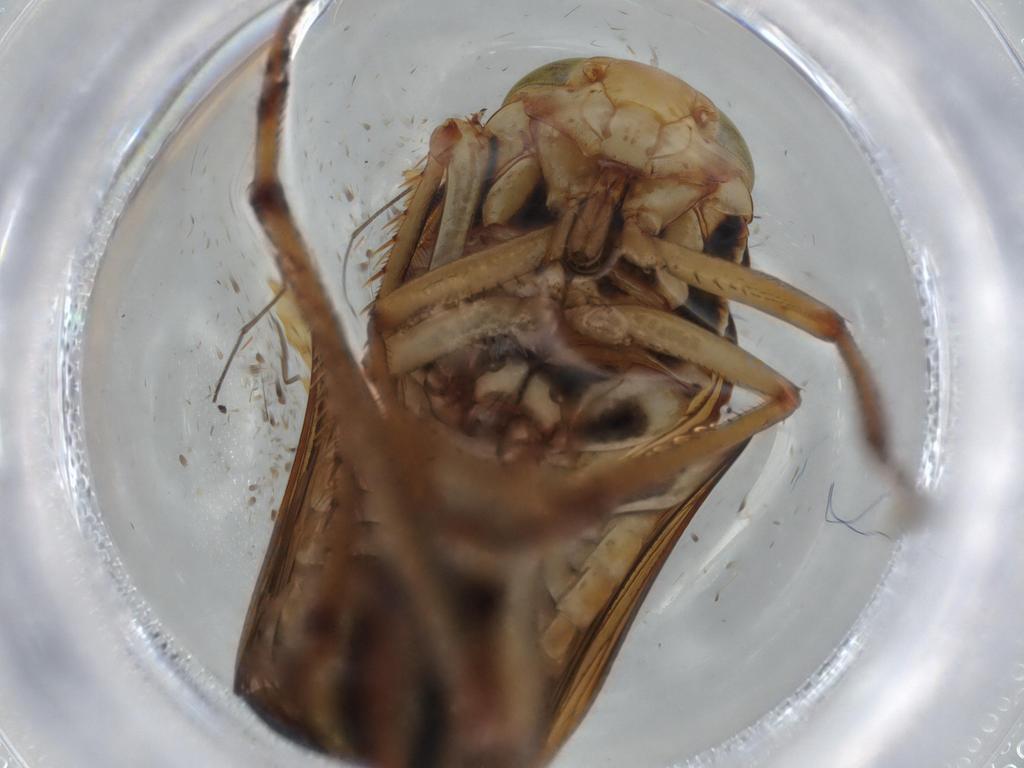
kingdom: Animalia
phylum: Arthropoda
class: Insecta
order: Hemiptera
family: Cicadellidae
